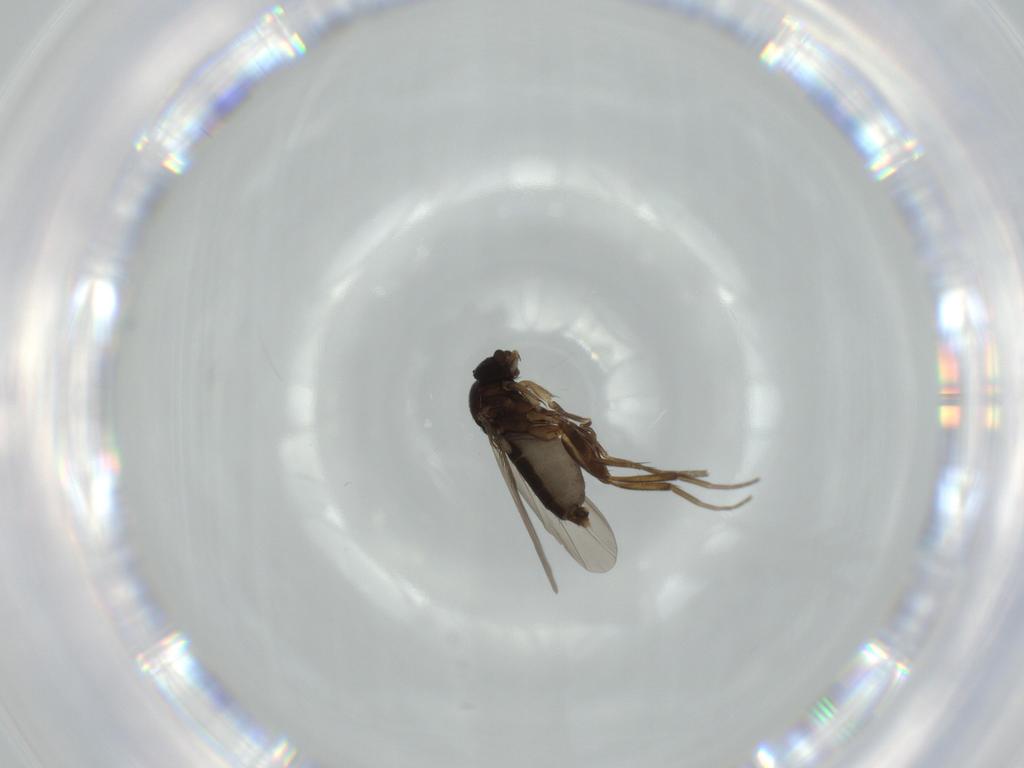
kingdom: Animalia
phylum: Arthropoda
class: Insecta
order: Diptera
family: Phoridae
